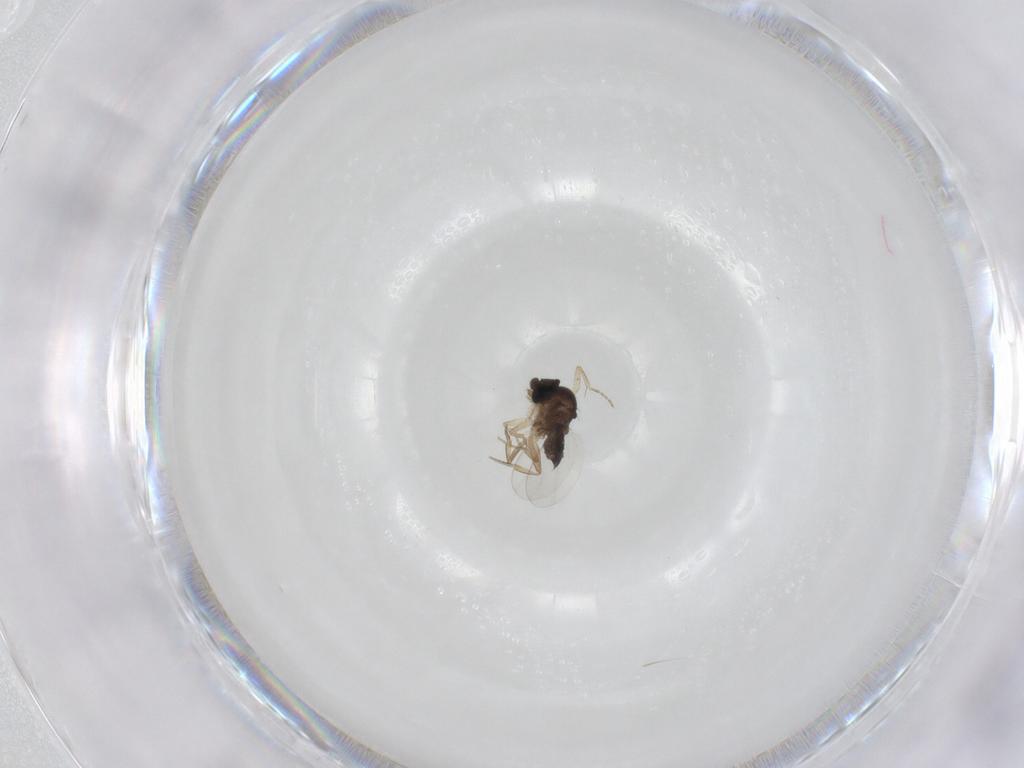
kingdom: Animalia
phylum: Arthropoda
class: Insecta
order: Diptera
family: Phoridae
